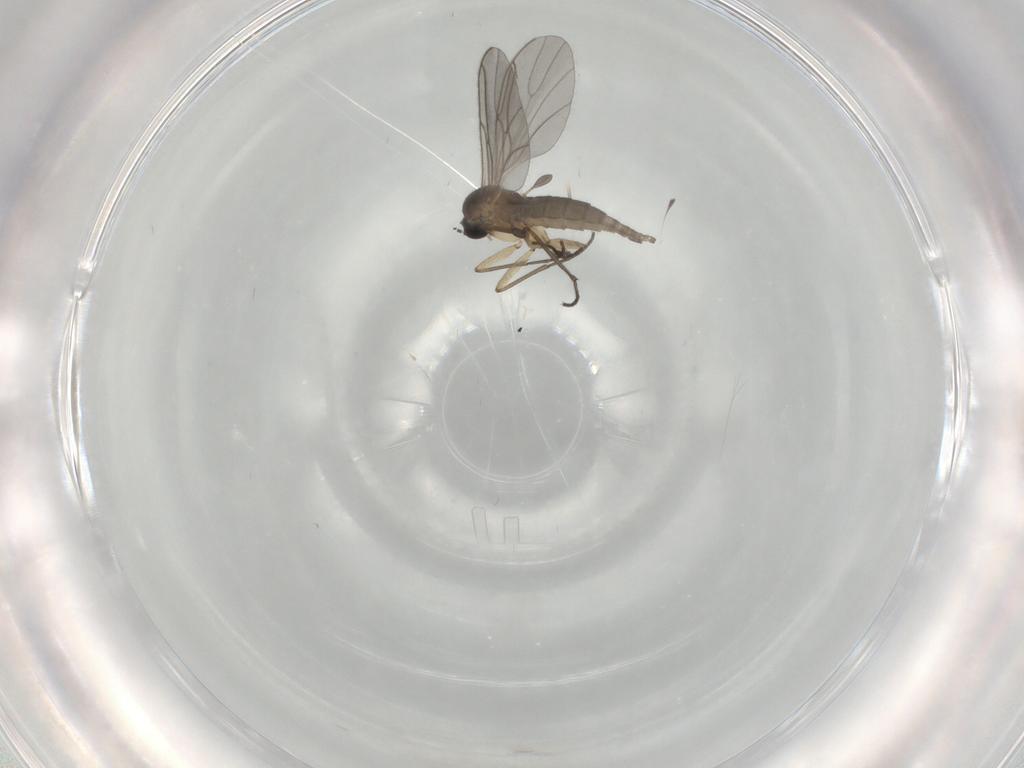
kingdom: Animalia
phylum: Arthropoda
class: Insecta
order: Diptera
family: Sciaridae
